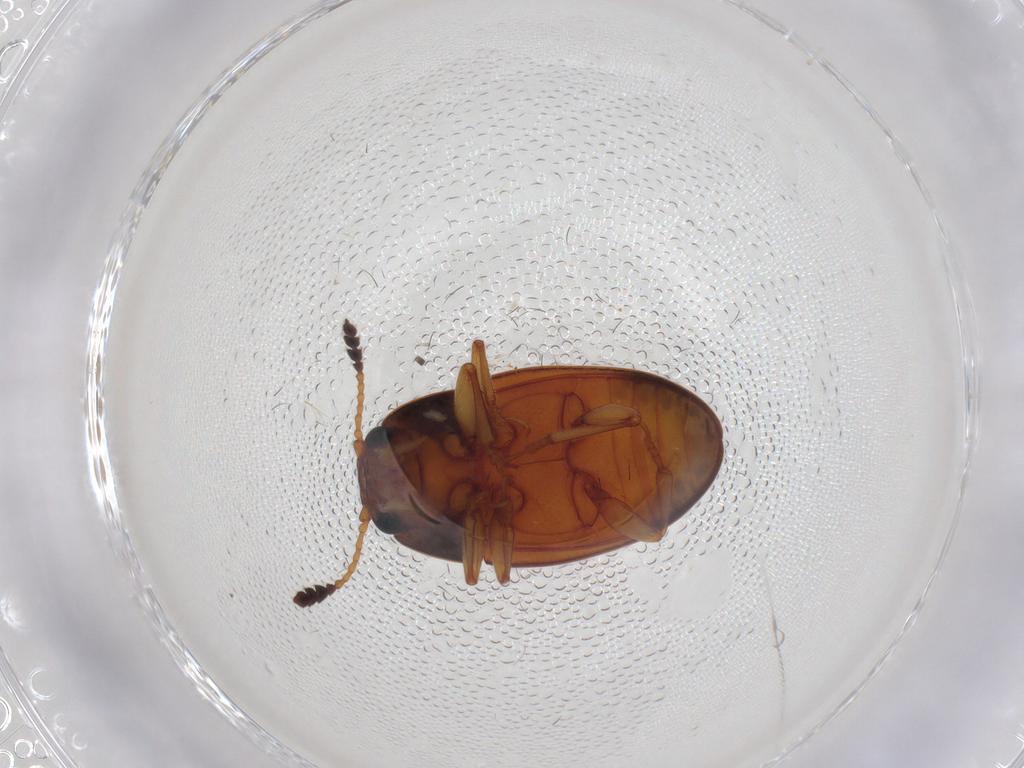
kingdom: Animalia
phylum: Arthropoda
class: Insecta
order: Coleoptera
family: Erotylidae
